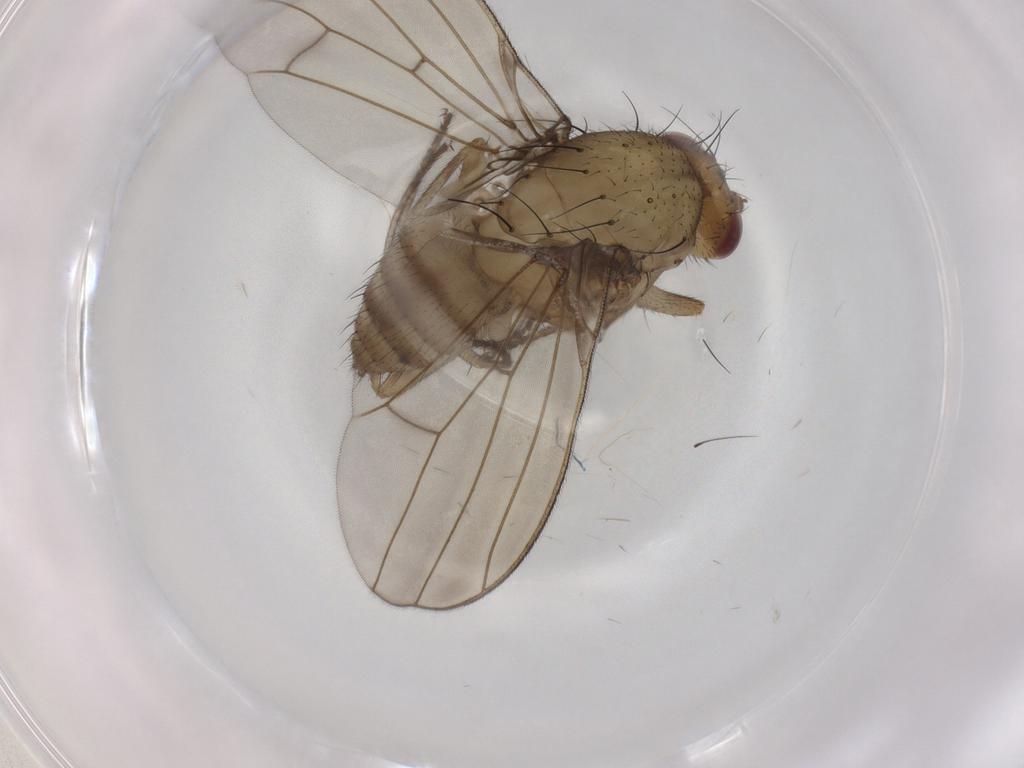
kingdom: Animalia
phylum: Arthropoda
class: Insecta
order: Diptera
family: Lauxaniidae
